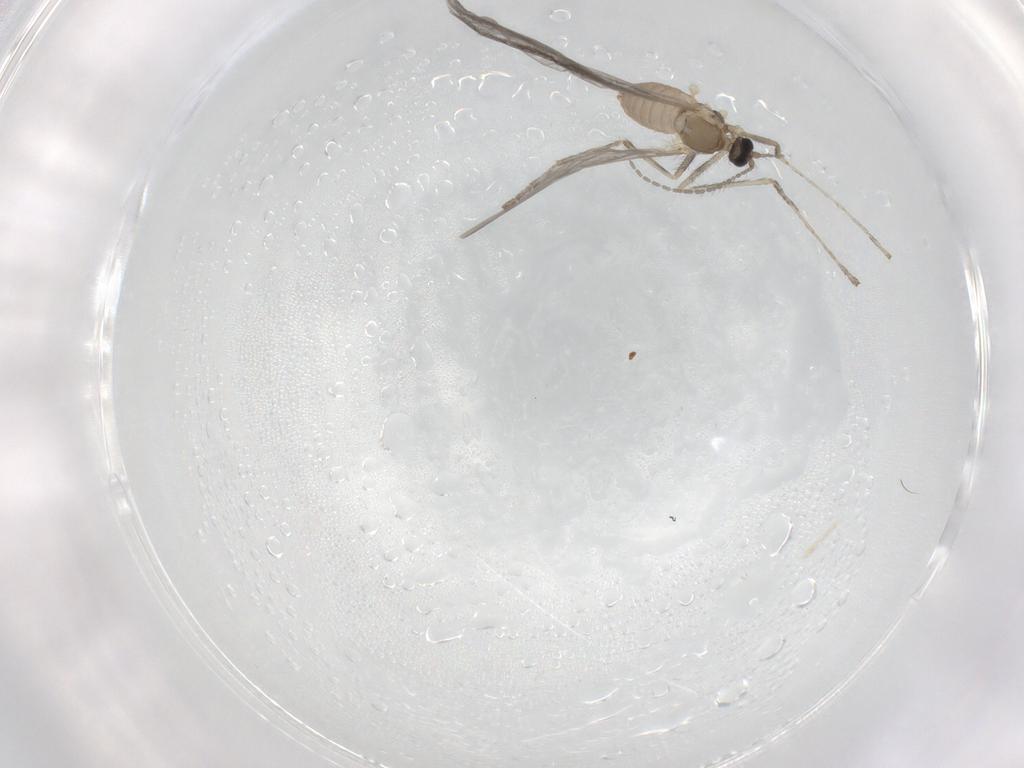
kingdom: Animalia
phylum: Arthropoda
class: Insecta
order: Diptera
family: Cecidomyiidae
